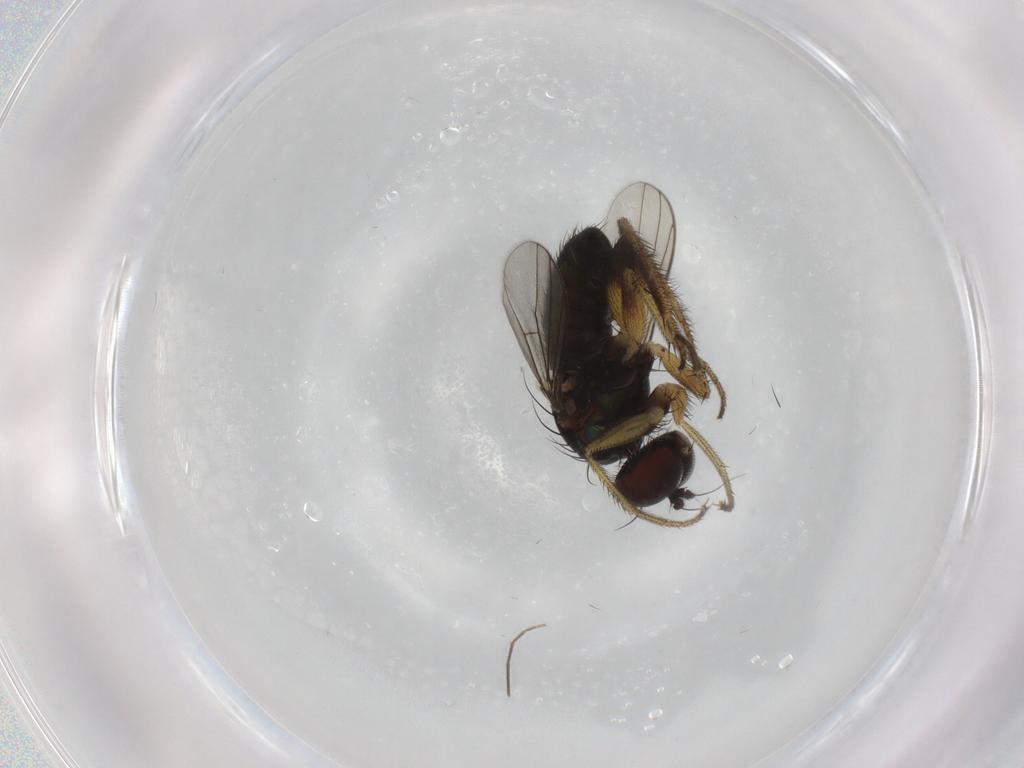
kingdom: Animalia
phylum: Arthropoda
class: Insecta
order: Diptera
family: Dolichopodidae
